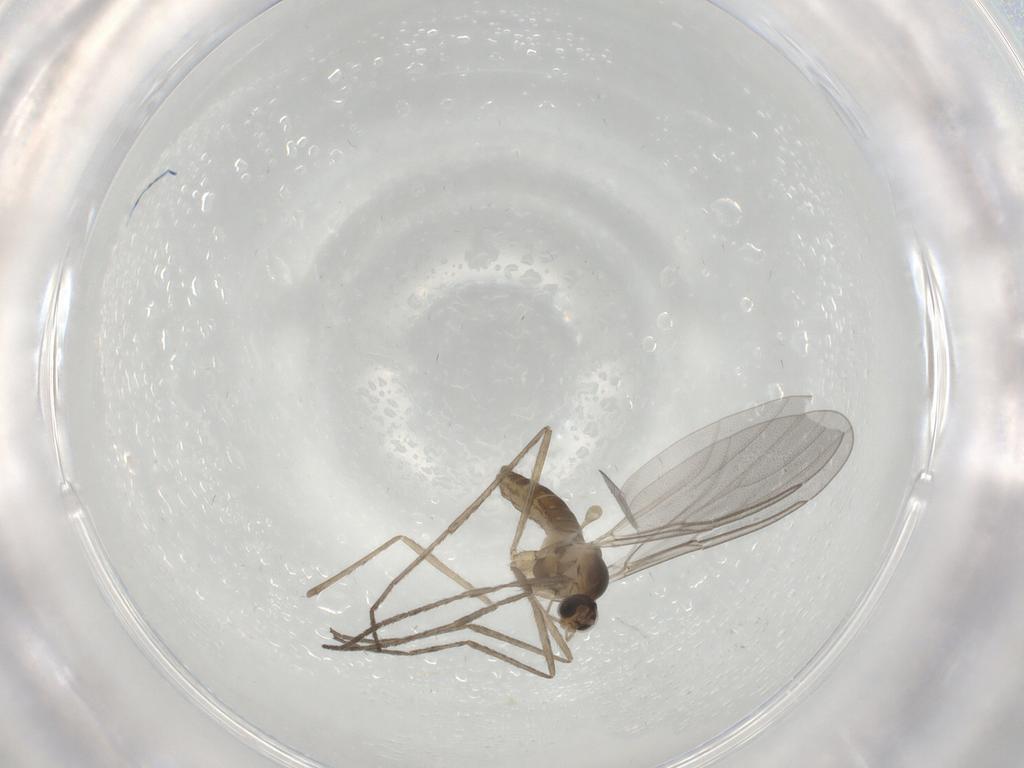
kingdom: Animalia
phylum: Arthropoda
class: Insecta
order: Diptera
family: Cecidomyiidae
